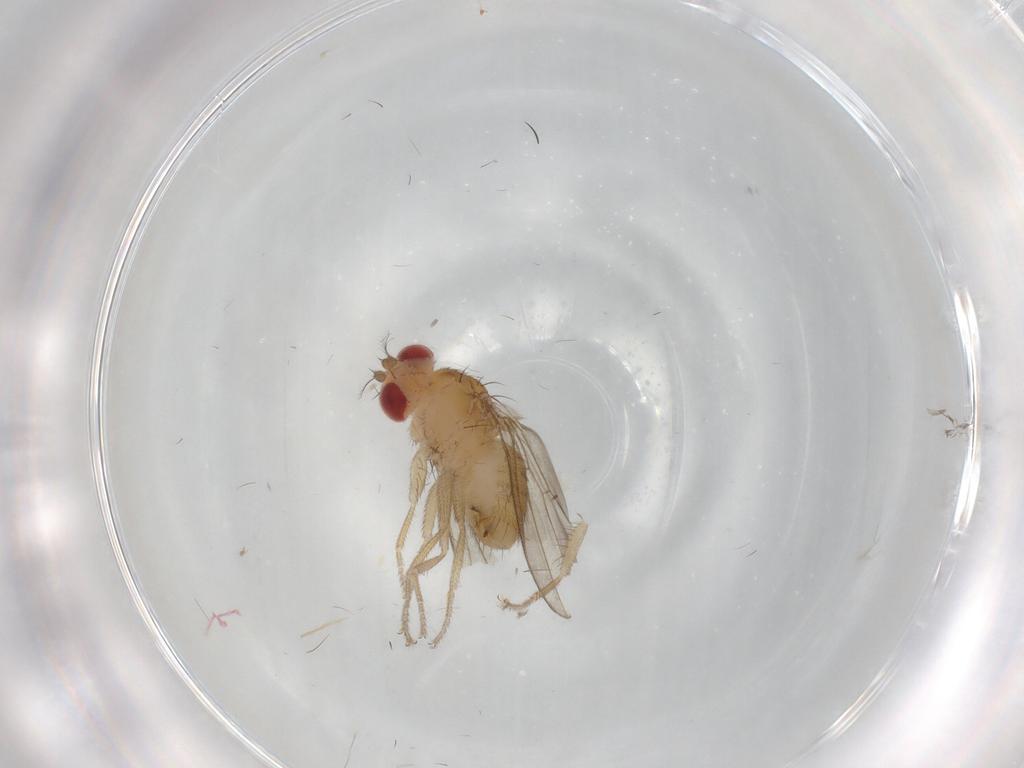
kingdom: Animalia
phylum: Arthropoda
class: Insecta
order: Diptera
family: Drosophilidae
